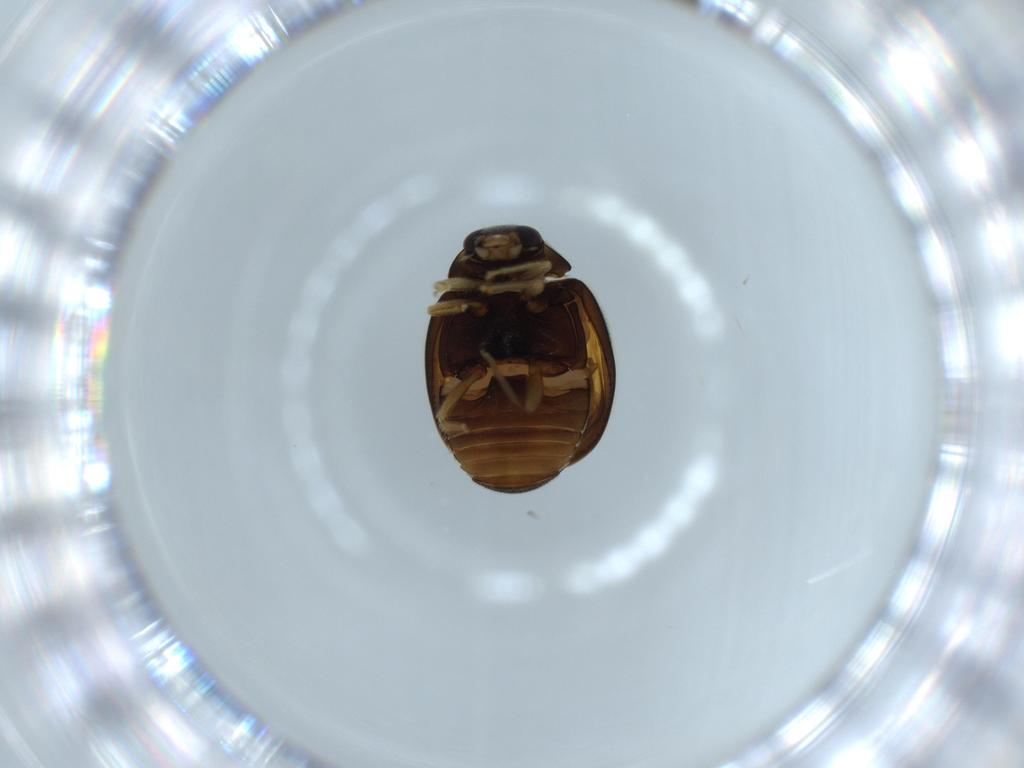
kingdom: Animalia
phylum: Arthropoda
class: Insecta
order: Coleoptera
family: Coccinellidae
